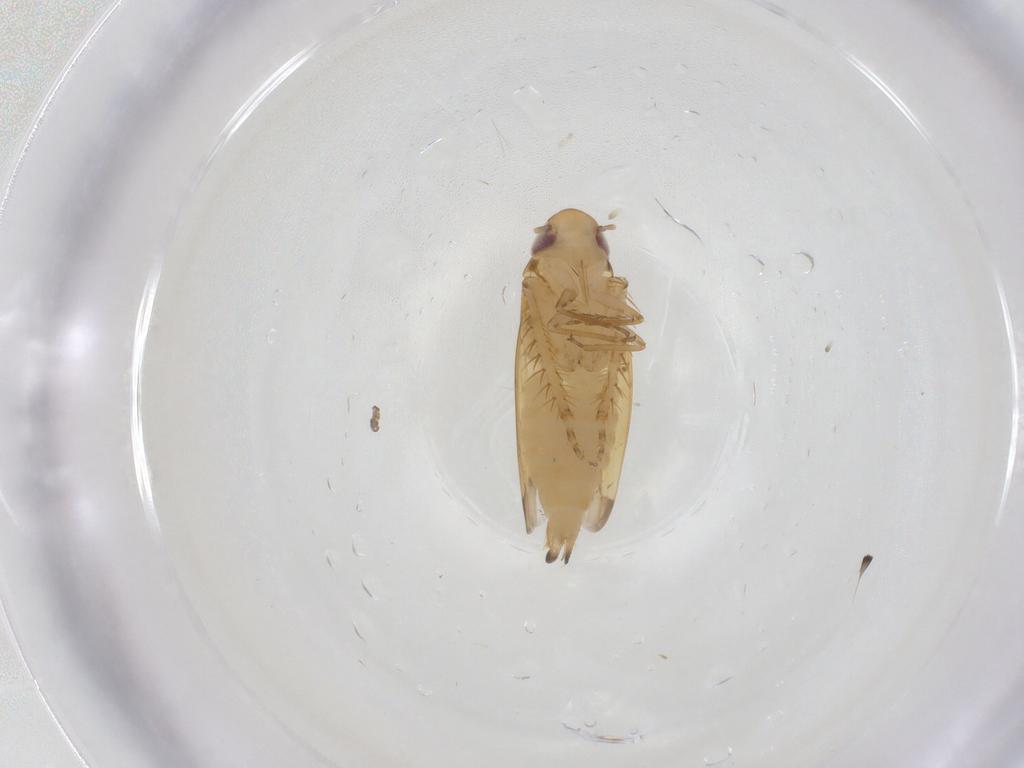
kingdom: Animalia
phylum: Arthropoda
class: Insecta
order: Hemiptera
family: Cicadellidae
